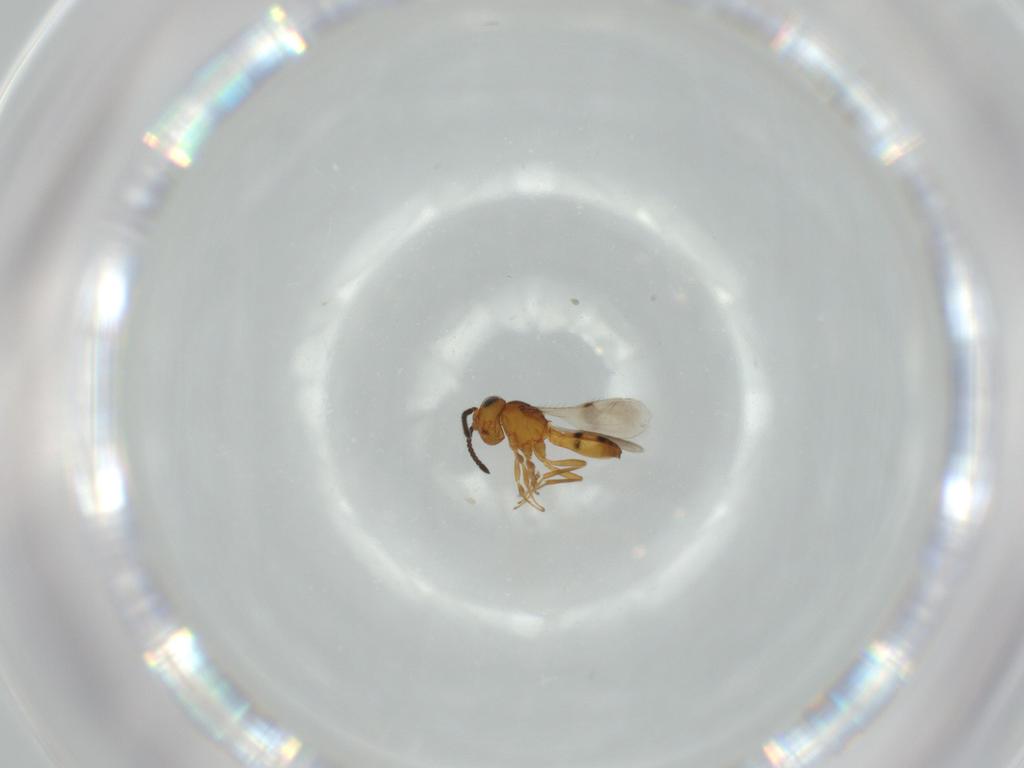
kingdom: Animalia
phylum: Arthropoda
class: Insecta
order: Hymenoptera
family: Scelionidae
